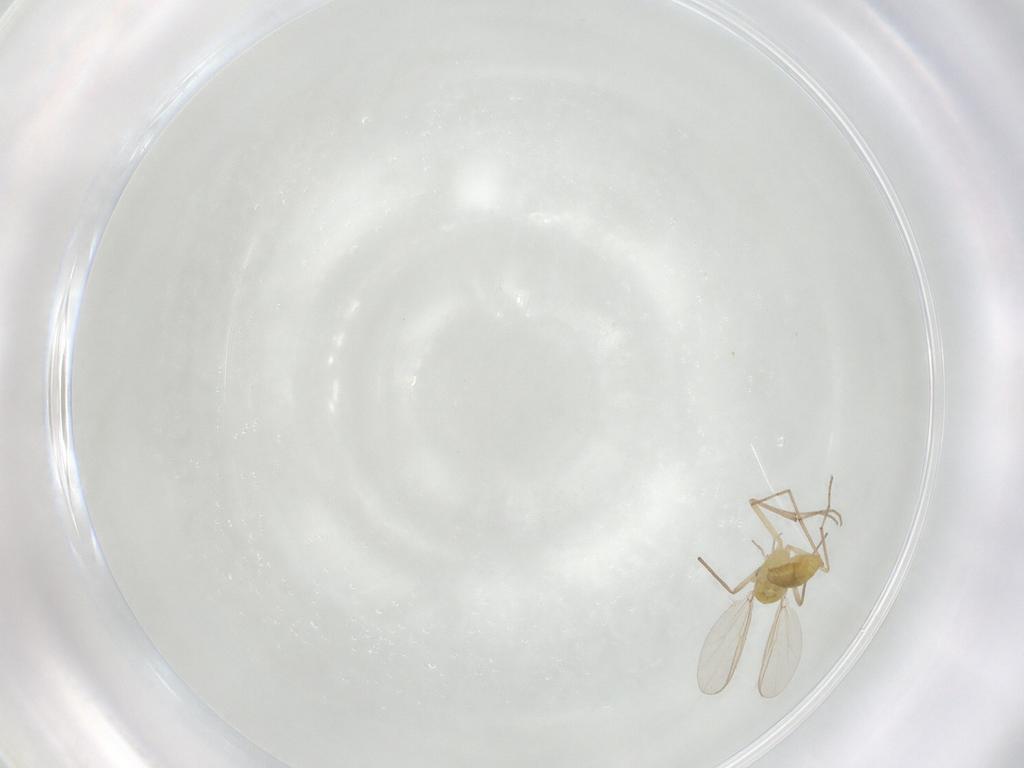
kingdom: Animalia
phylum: Arthropoda
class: Insecta
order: Diptera
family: Chironomidae
